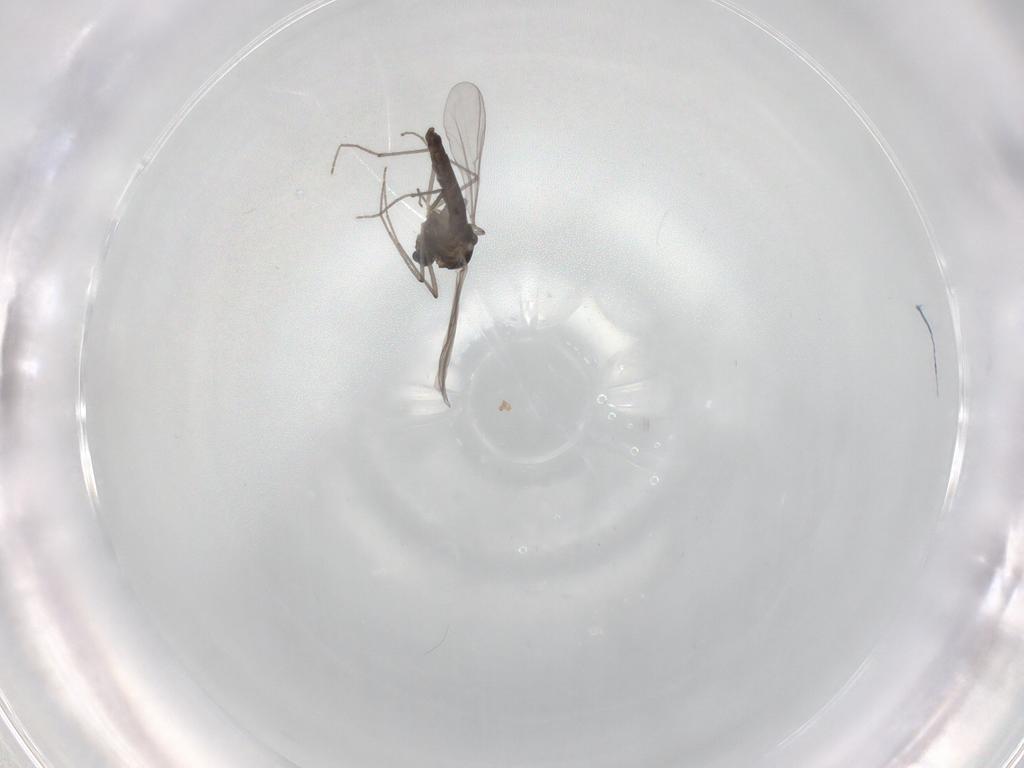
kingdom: Animalia
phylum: Arthropoda
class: Insecta
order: Diptera
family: Chironomidae
